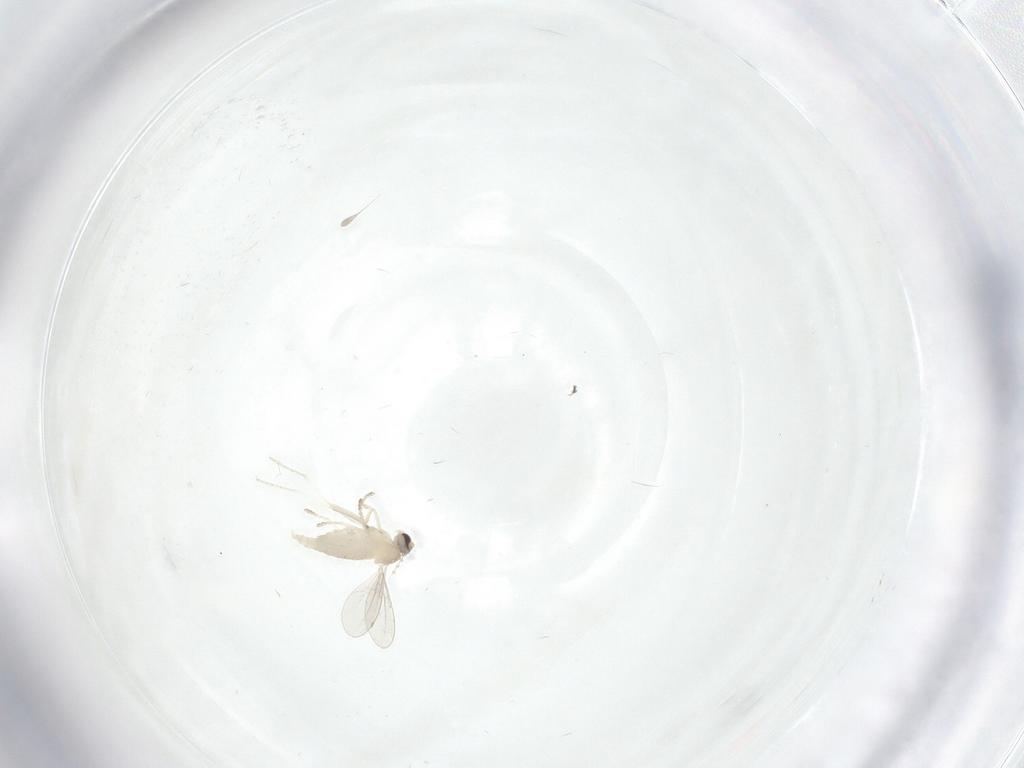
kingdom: Animalia
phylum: Arthropoda
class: Insecta
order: Diptera
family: Cecidomyiidae
